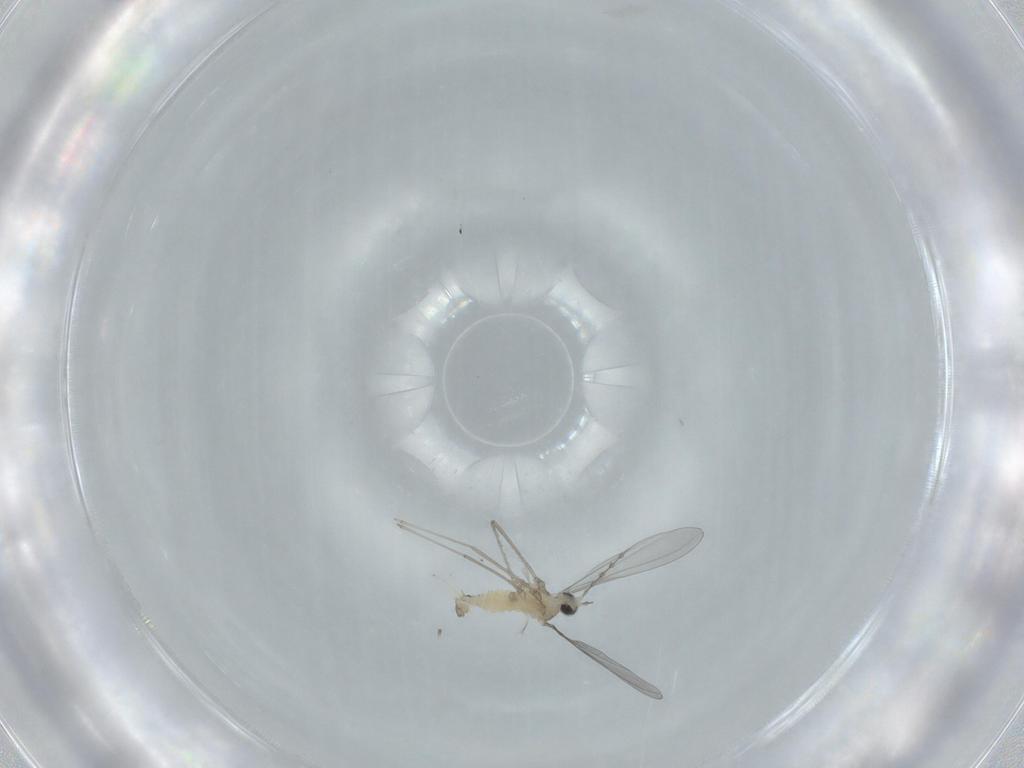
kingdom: Animalia
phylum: Arthropoda
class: Insecta
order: Diptera
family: Cecidomyiidae
